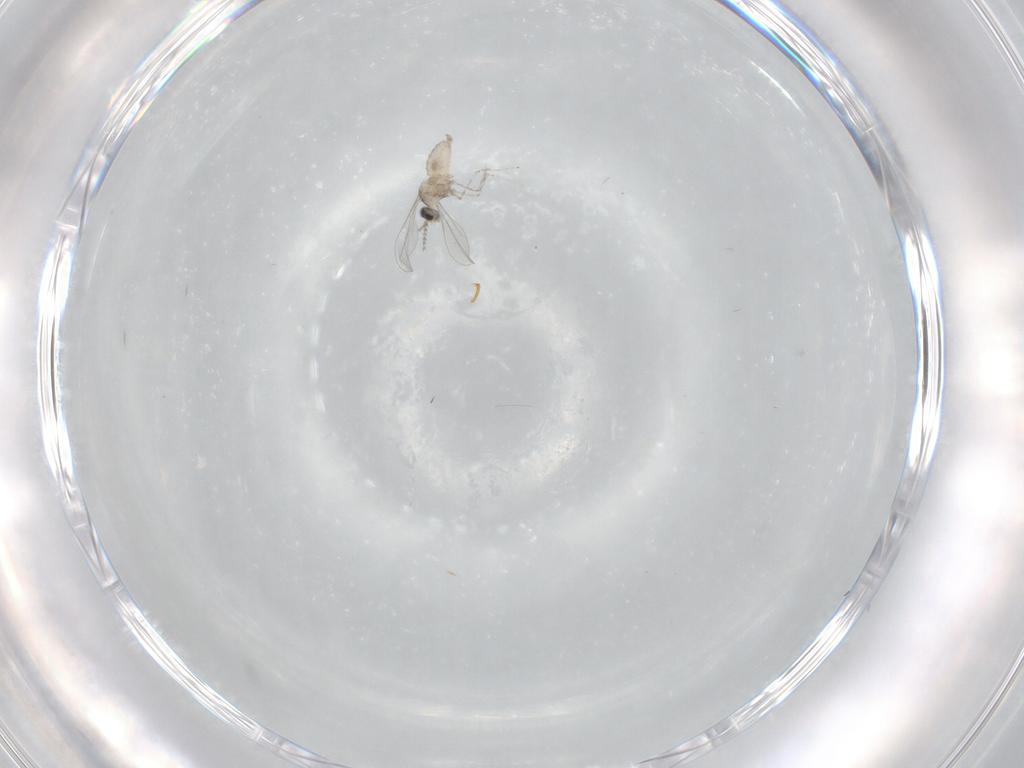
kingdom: Animalia
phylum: Arthropoda
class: Insecta
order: Diptera
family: Cecidomyiidae
